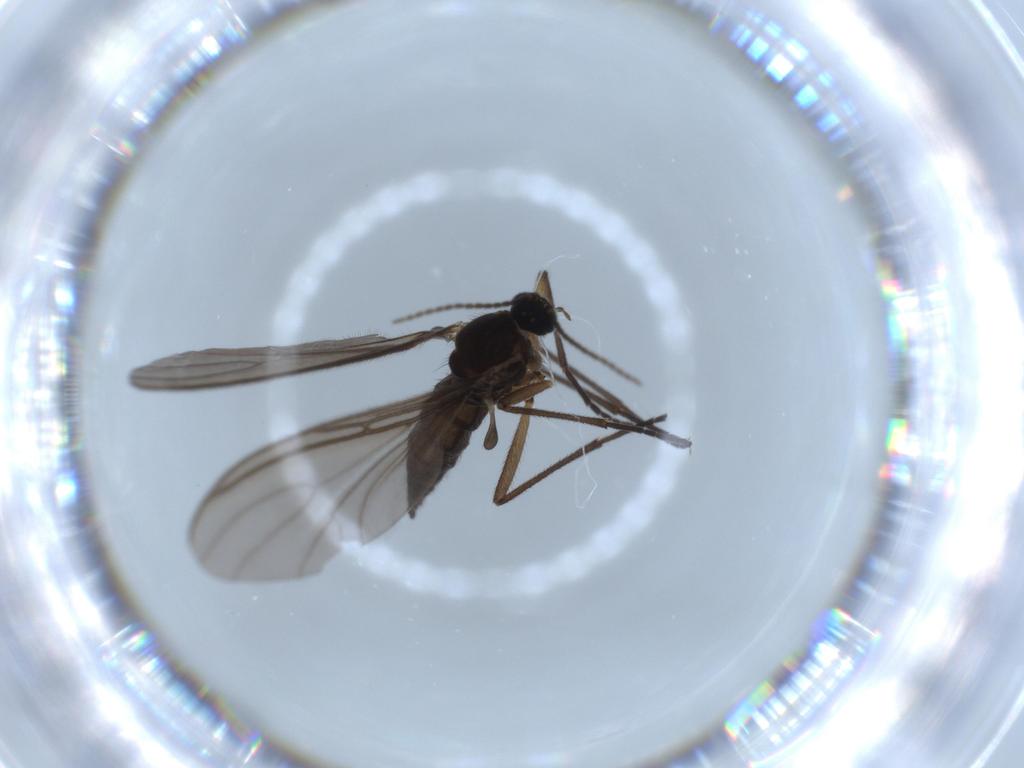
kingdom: Animalia
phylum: Arthropoda
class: Insecta
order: Diptera
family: Sciaridae
